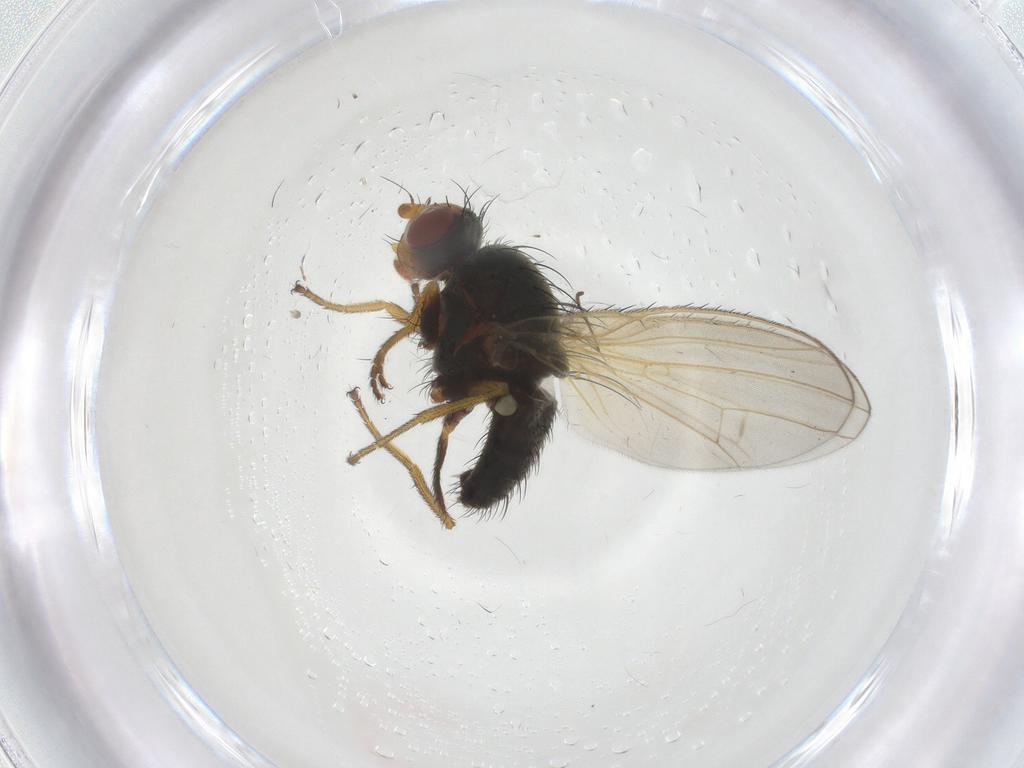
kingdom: Animalia
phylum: Arthropoda
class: Insecta
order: Diptera
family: Heleomyzidae
